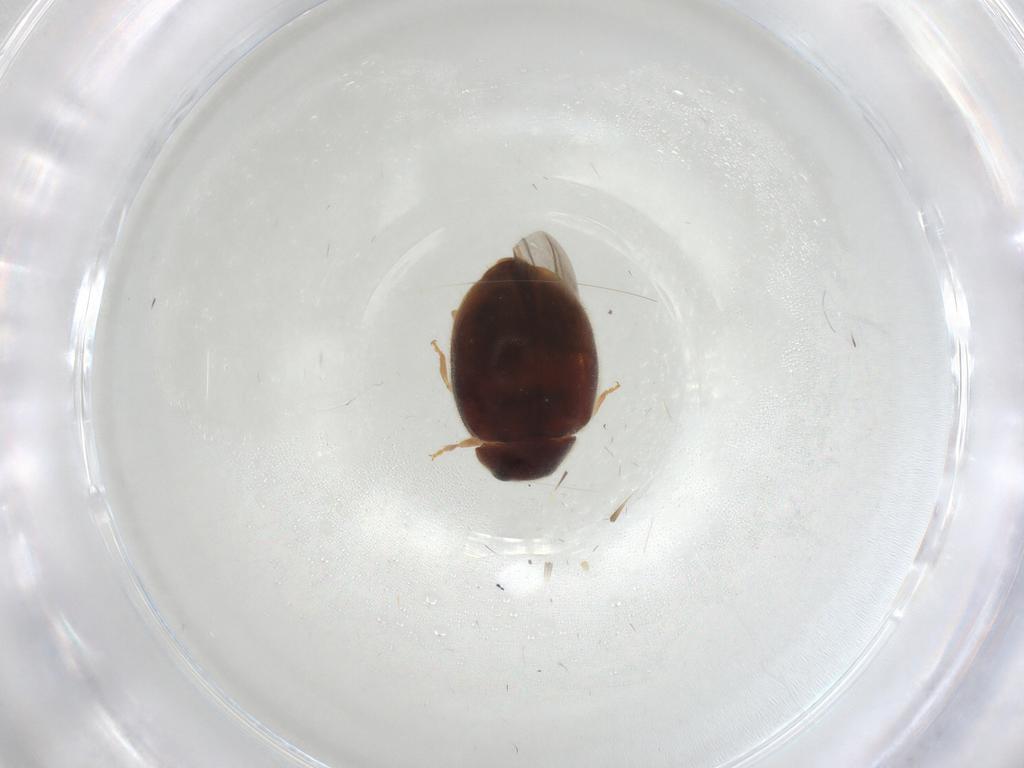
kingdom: Animalia
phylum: Arthropoda
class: Insecta
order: Coleoptera
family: Coccinellidae
